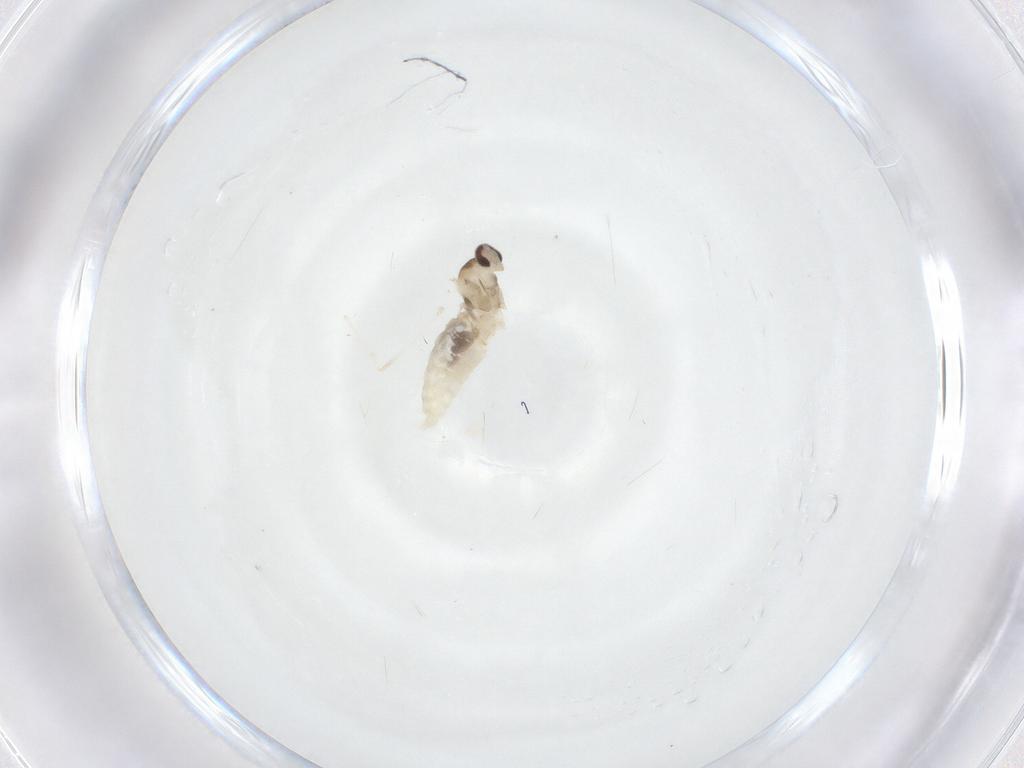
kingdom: Animalia
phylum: Arthropoda
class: Insecta
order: Diptera
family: Cecidomyiidae
